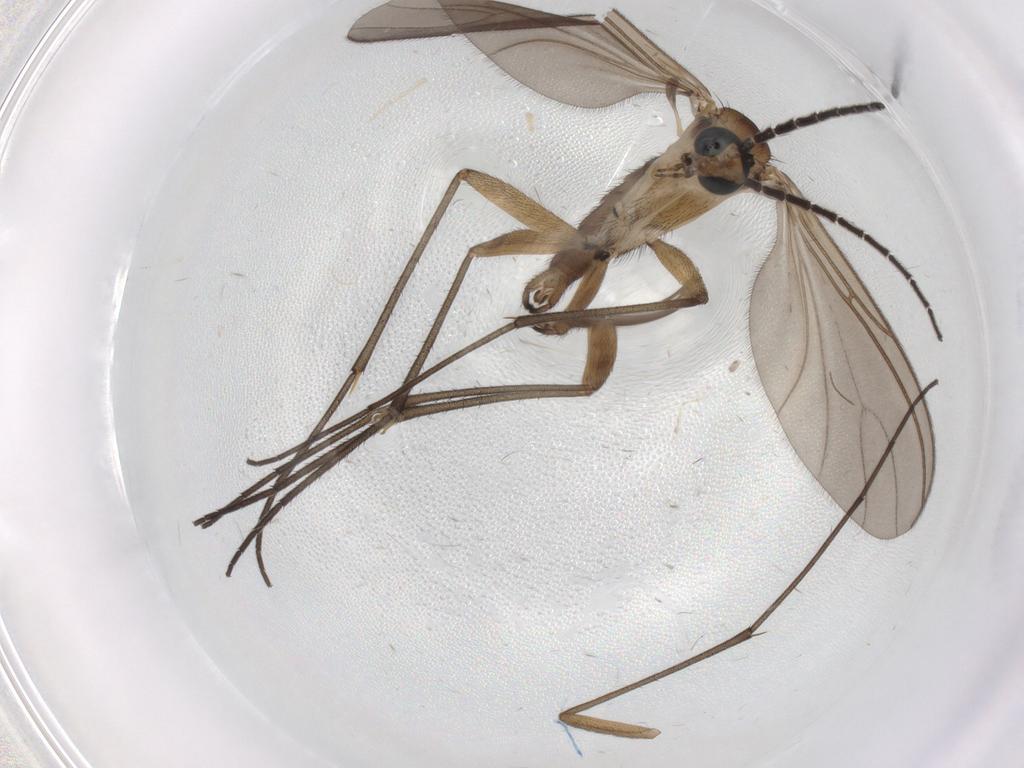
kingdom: Animalia
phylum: Arthropoda
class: Insecta
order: Diptera
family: Chironomidae
